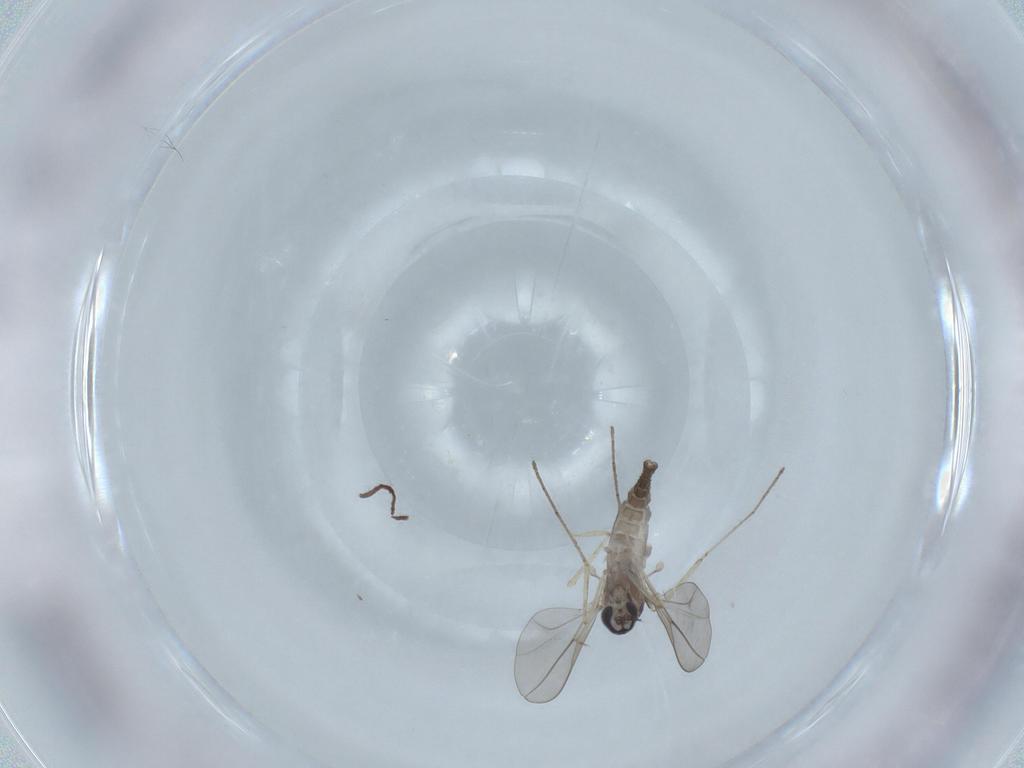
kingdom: Animalia
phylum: Arthropoda
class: Insecta
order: Diptera
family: Cecidomyiidae
